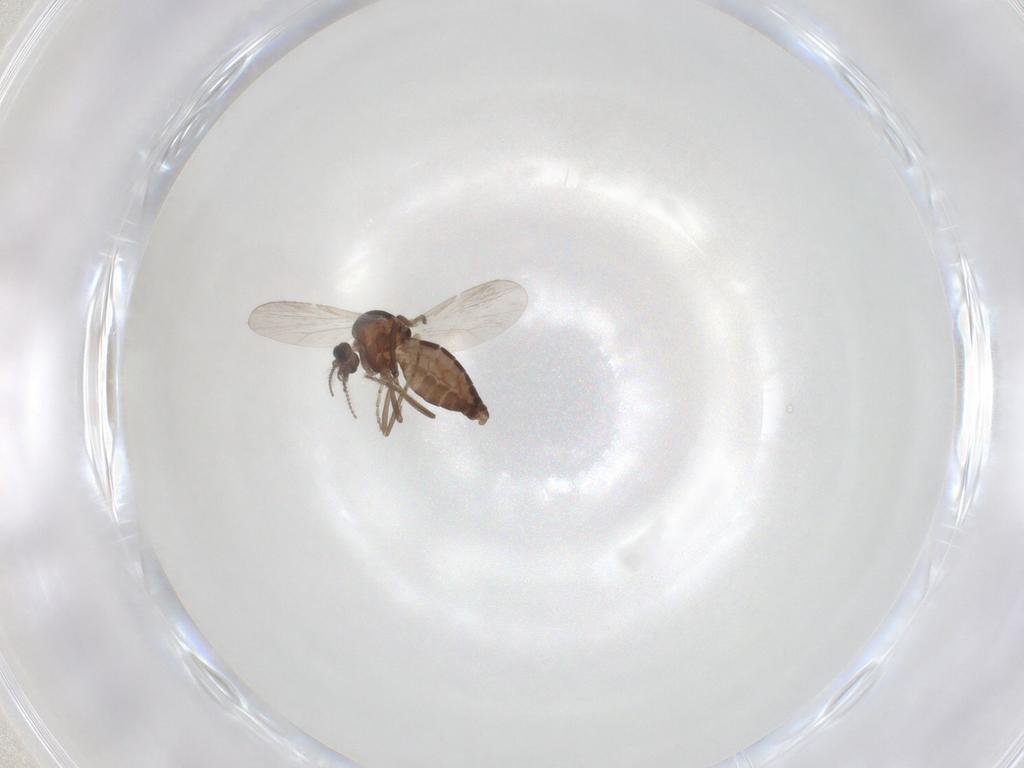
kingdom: Animalia
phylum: Arthropoda
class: Insecta
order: Diptera
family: Ceratopogonidae
